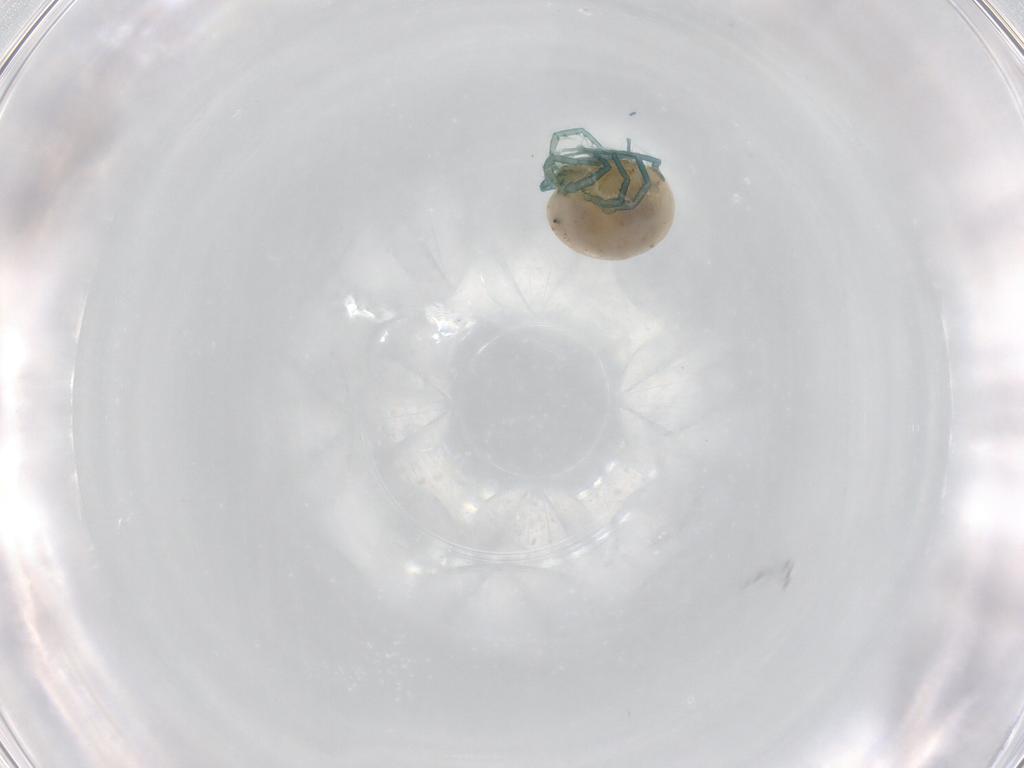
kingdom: Animalia
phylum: Arthropoda
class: Arachnida
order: Trombidiformes
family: Unionicolidae
